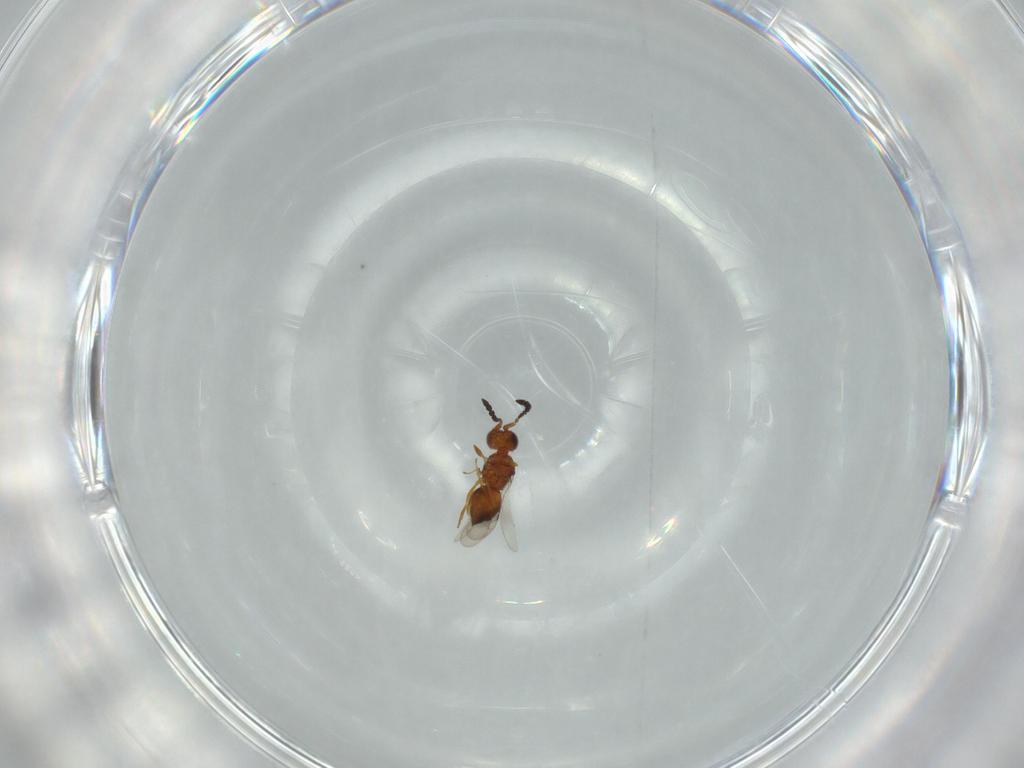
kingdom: Animalia
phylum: Arthropoda
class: Insecta
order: Hymenoptera
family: Ceraphronidae
